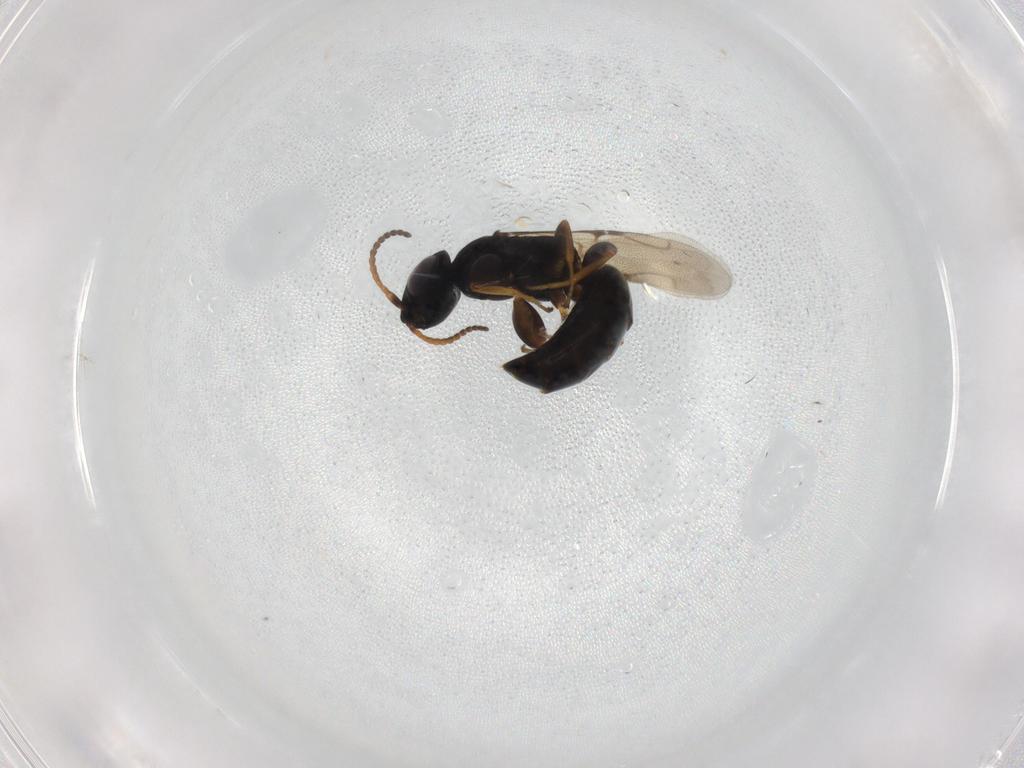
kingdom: Animalia
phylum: Arthropoda
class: Insecta
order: Hymenoptera
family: Bethylidae
